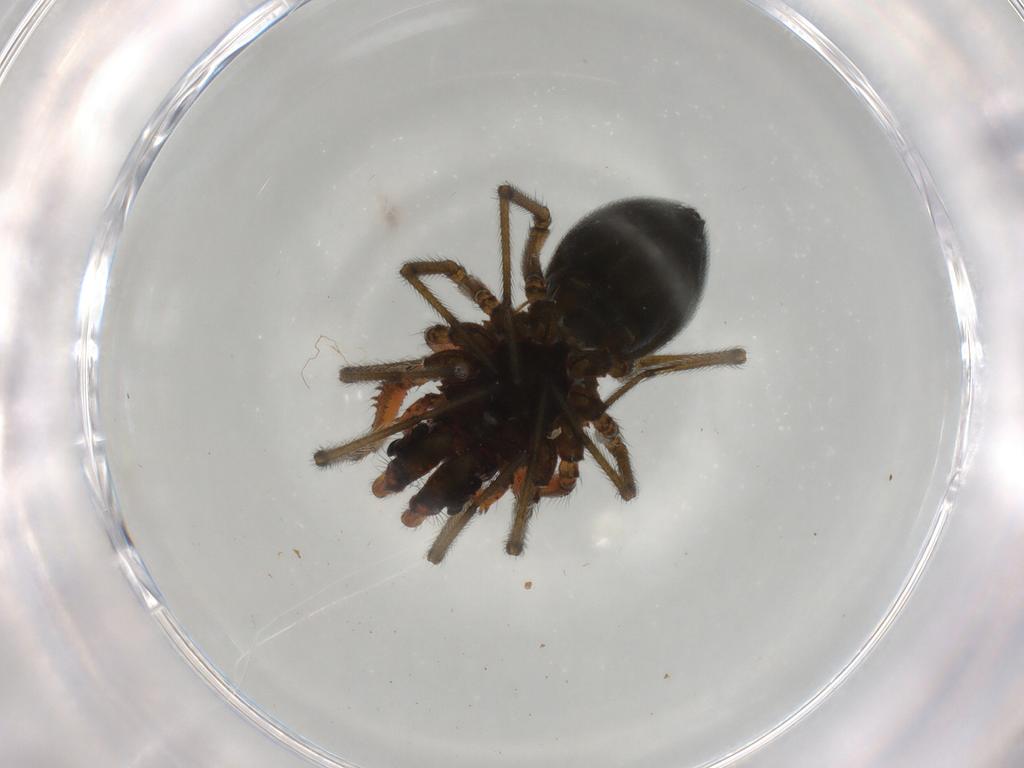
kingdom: Animalia
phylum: Arthropoda
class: Arachnida
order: Araneae
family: Linyphiidae
